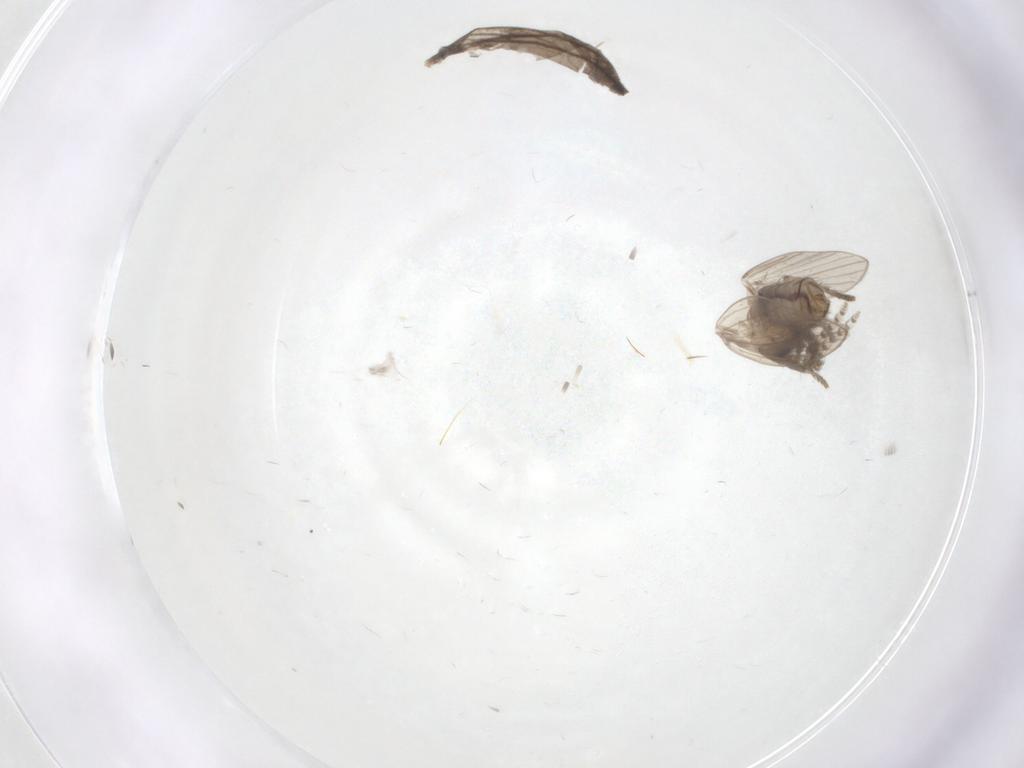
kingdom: Animalia
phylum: Arthropoda
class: Insecta
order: Diptera
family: Psychodidae
